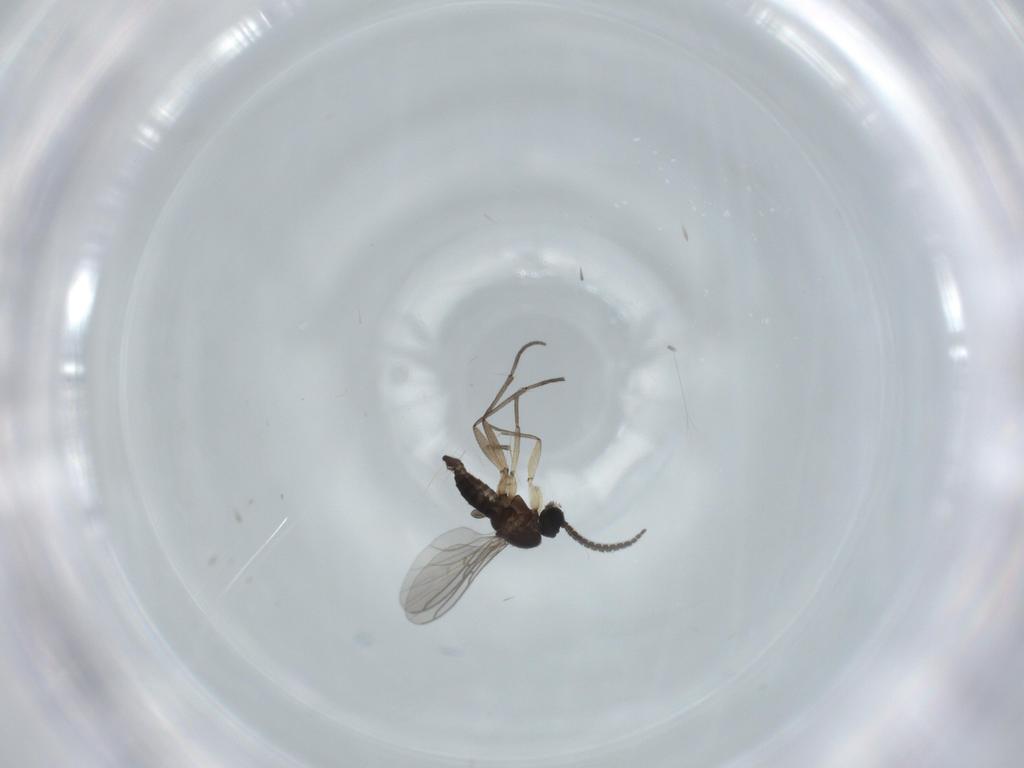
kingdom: Animalia
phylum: Arthropoda
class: Insecta
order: Diptera
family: Sciaridae
